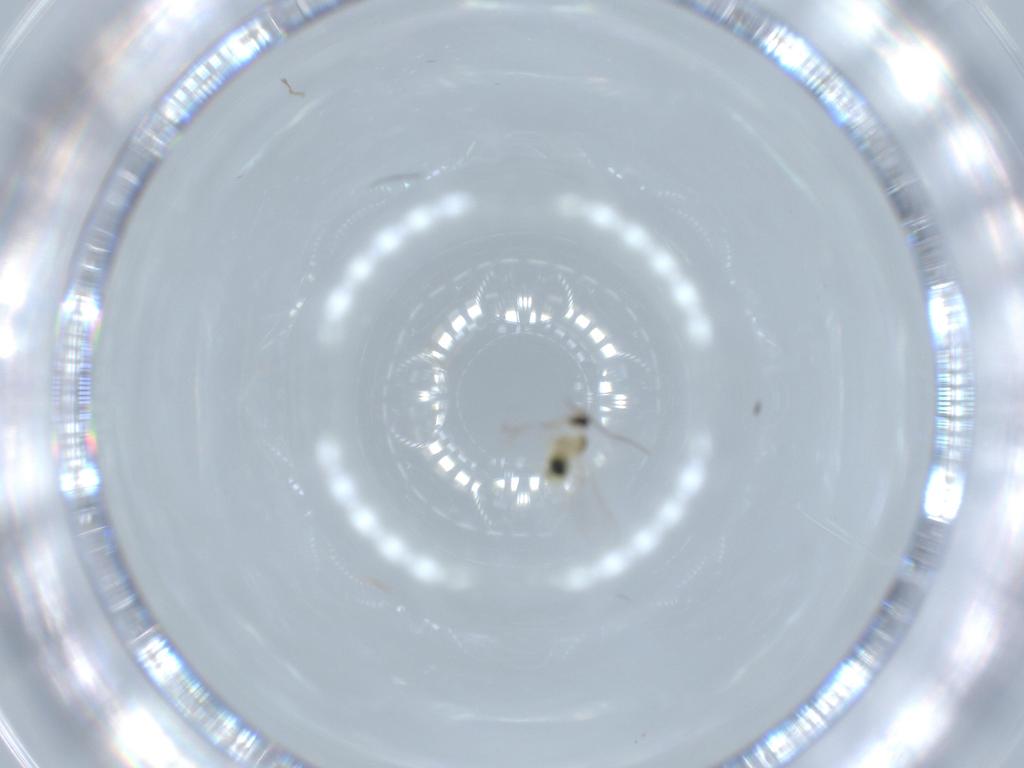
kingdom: Animalia
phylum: Arthropoda
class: Insecta
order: Diptera
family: Cecidomyiidae
